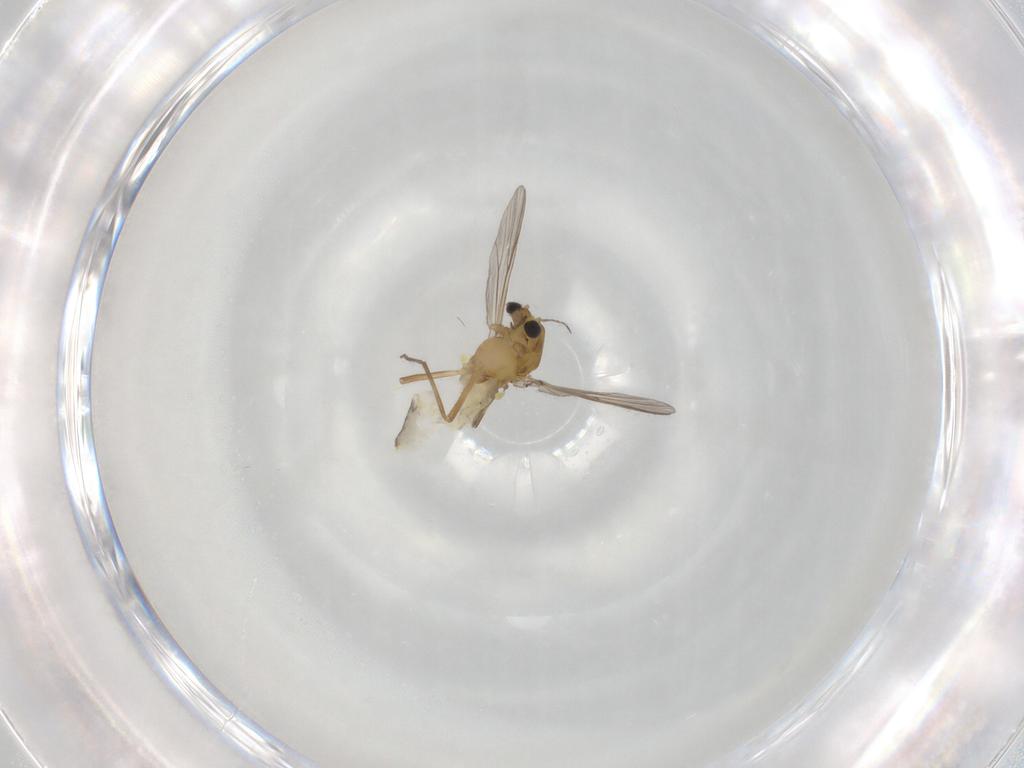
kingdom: Animalia
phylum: Arthropoda
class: Insecta
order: Diptera
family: Chironomidae
